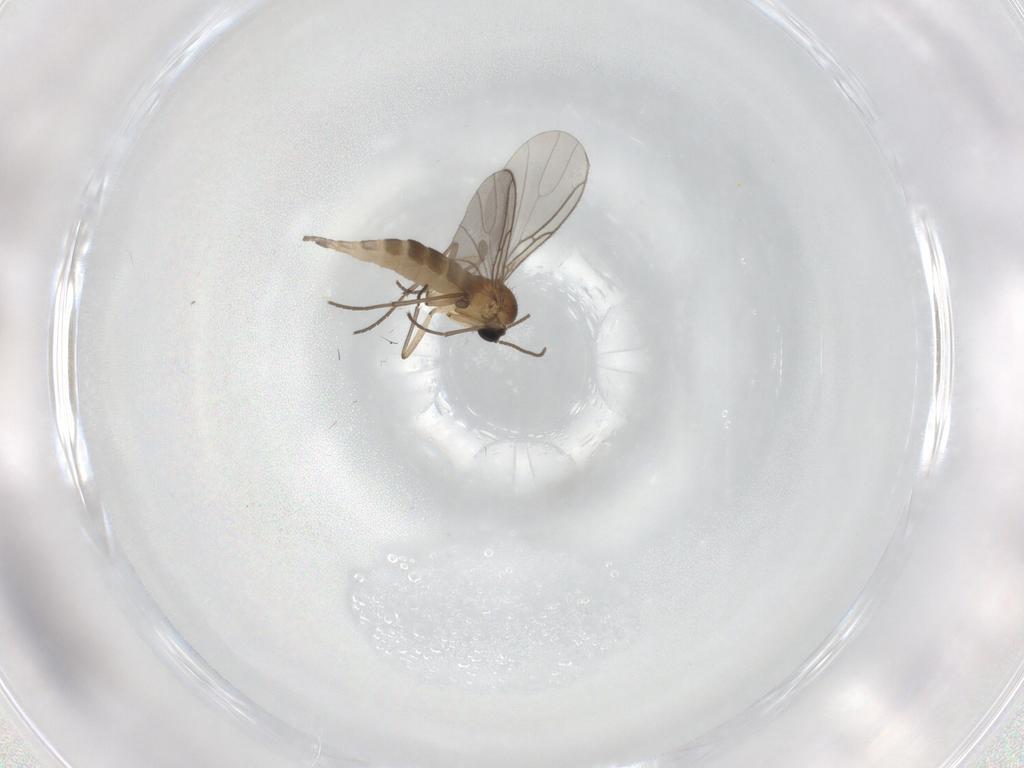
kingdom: Animalia
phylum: Arthropoda
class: Insecta
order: Diptera
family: Sciaridae
